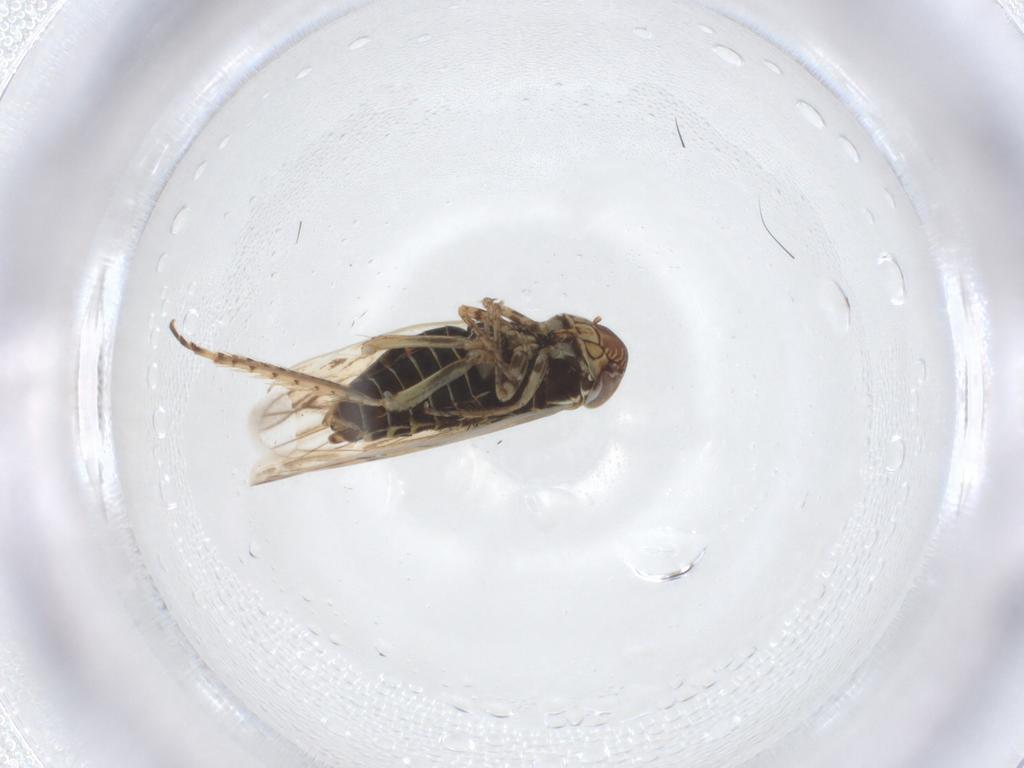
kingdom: Animalia
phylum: Arthropoda
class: Insecta
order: Hemiptera
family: Cicadellidae
